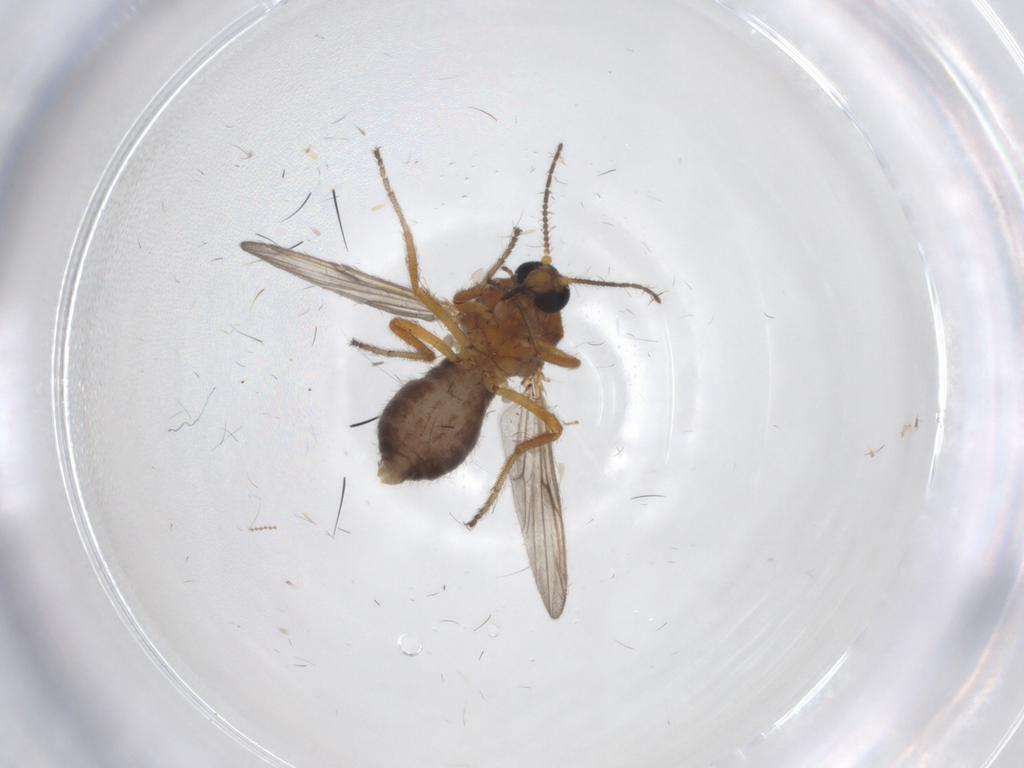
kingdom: Animalia
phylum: Arthropoda
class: Insecta
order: Diptera
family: Ceratopogonidae
